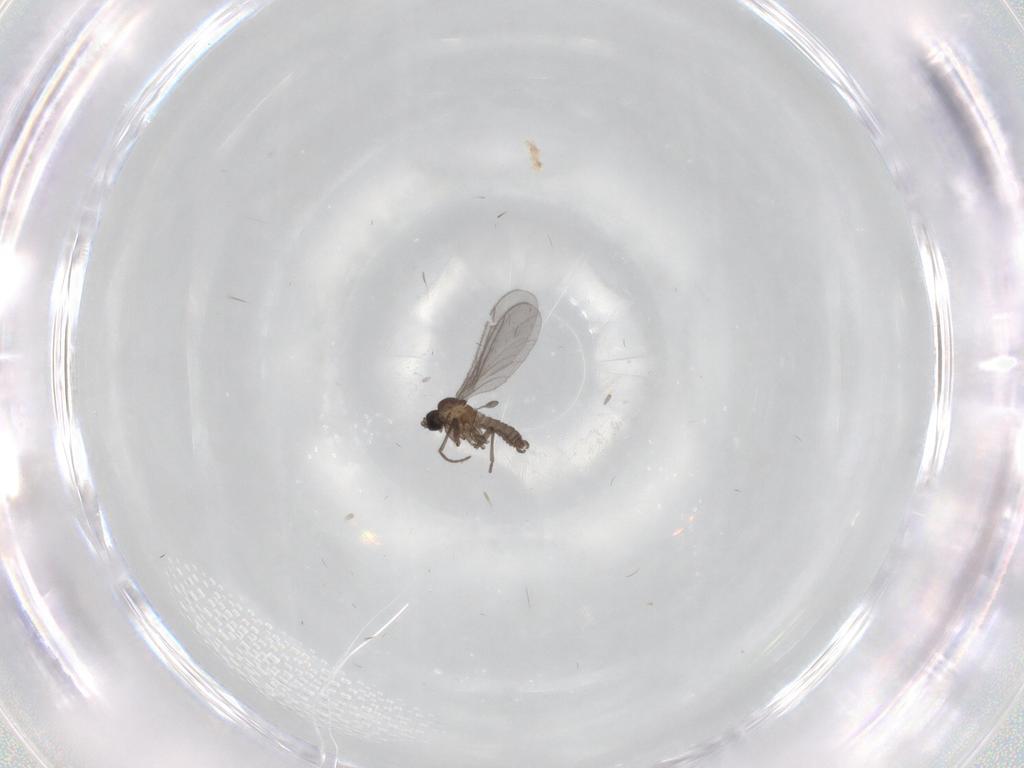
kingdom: Animalia
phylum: Arthropoda
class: Insecta
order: Diptera
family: Sciaridae
